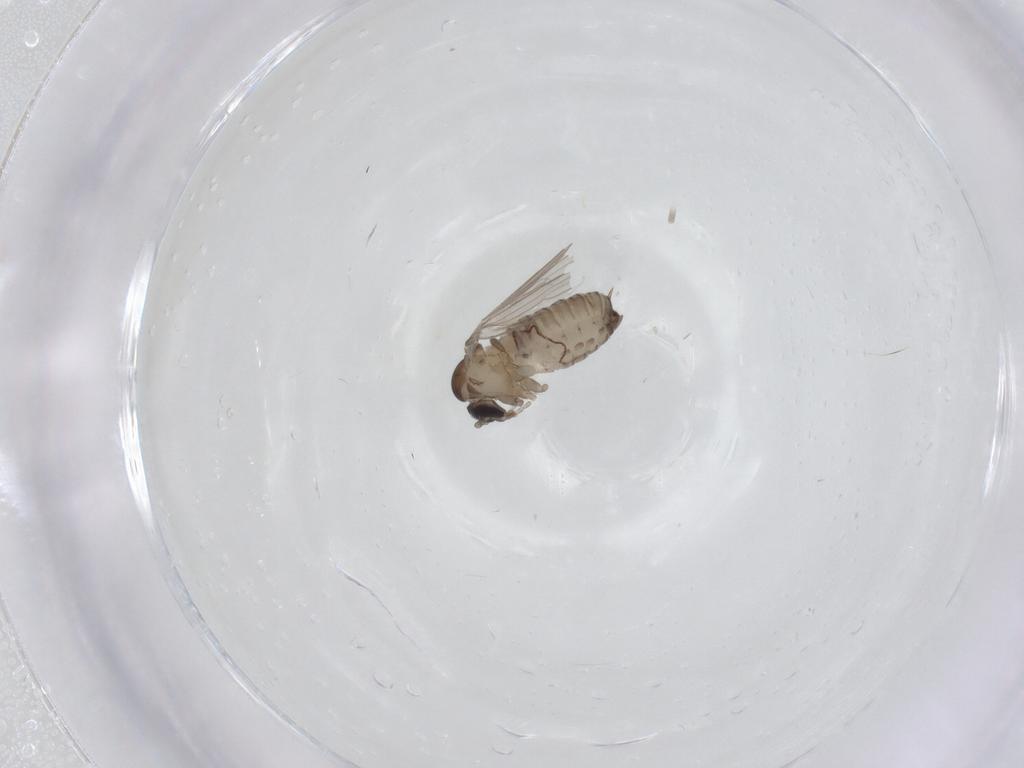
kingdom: Animalia
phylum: Arthropoda
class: Insecta
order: Diptera
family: Psychodidae
